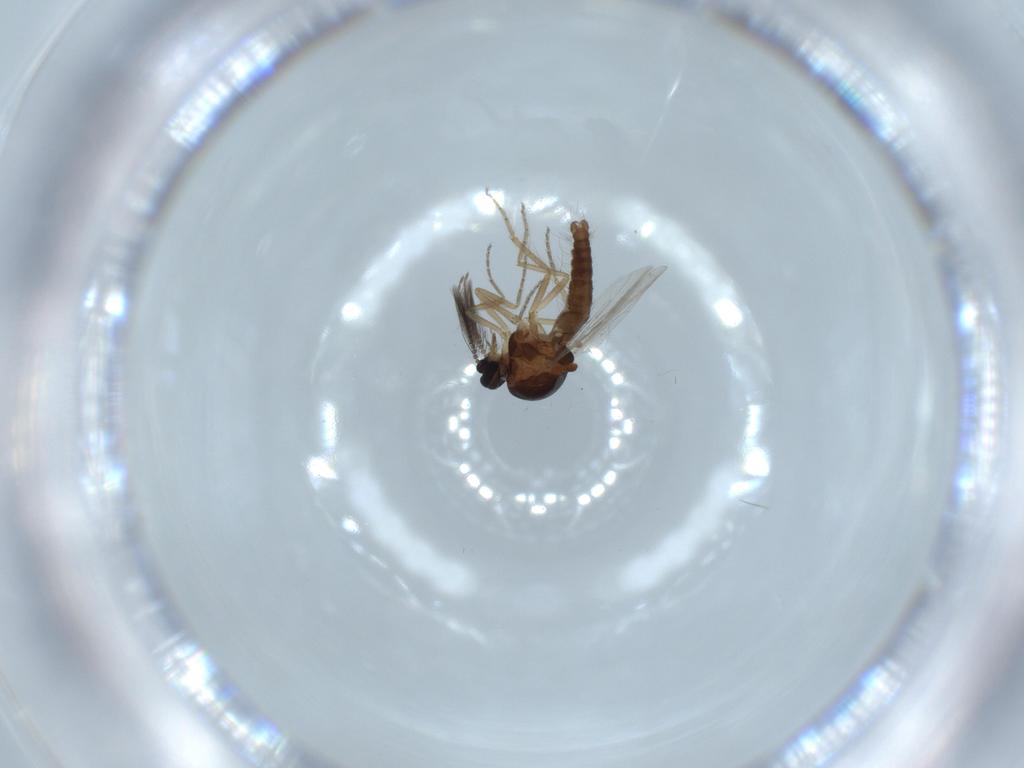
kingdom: Animalia
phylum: Arthropoda
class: Insecta
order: Diptera
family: Ceratopogonidae
